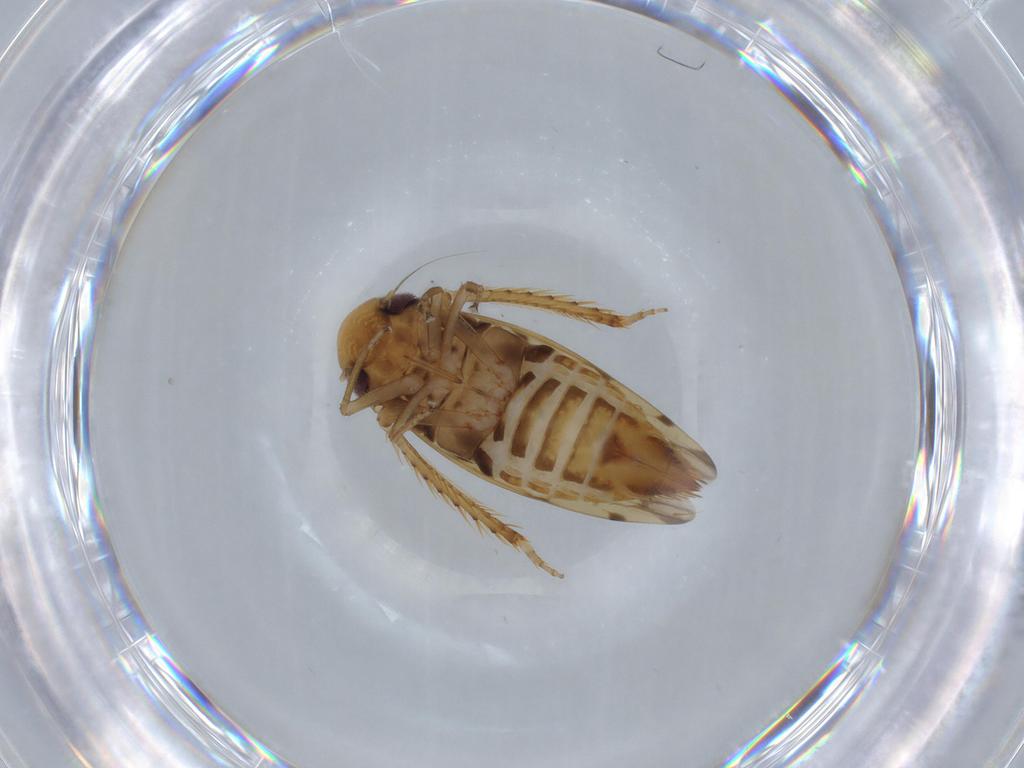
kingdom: Animalia
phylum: Arthropoda
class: Insecta
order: Hemiptera
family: Cicadellidae
